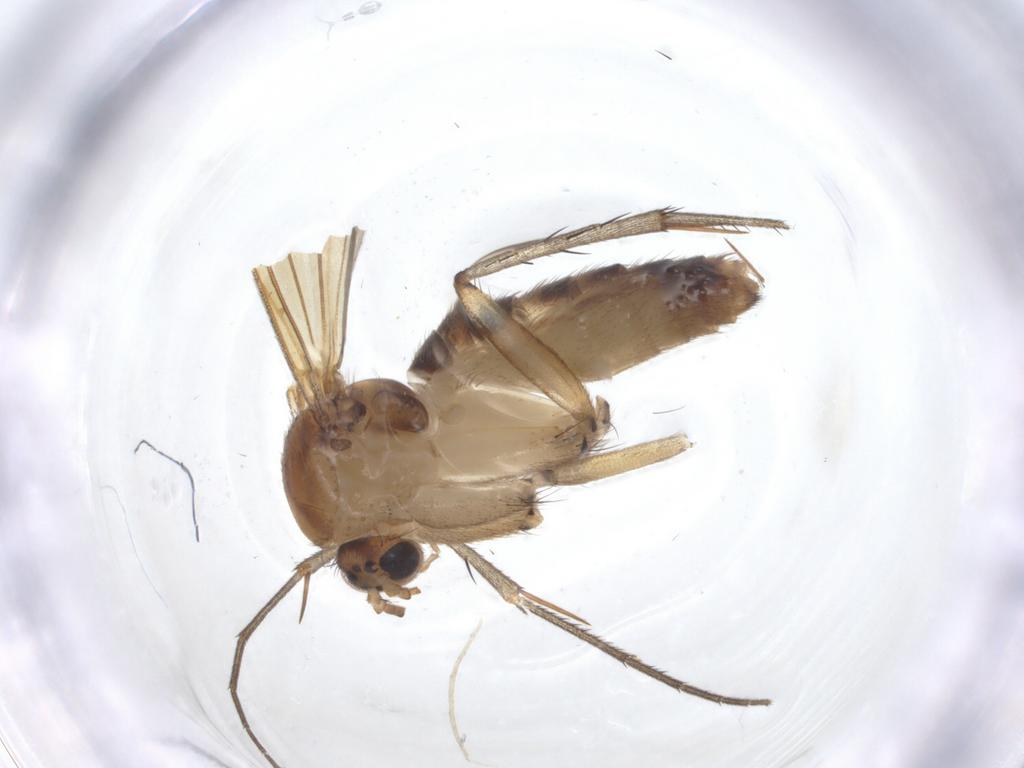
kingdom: Animalia
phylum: Arthropoda
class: Insecta
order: Diptera
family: Mycetophilidae
